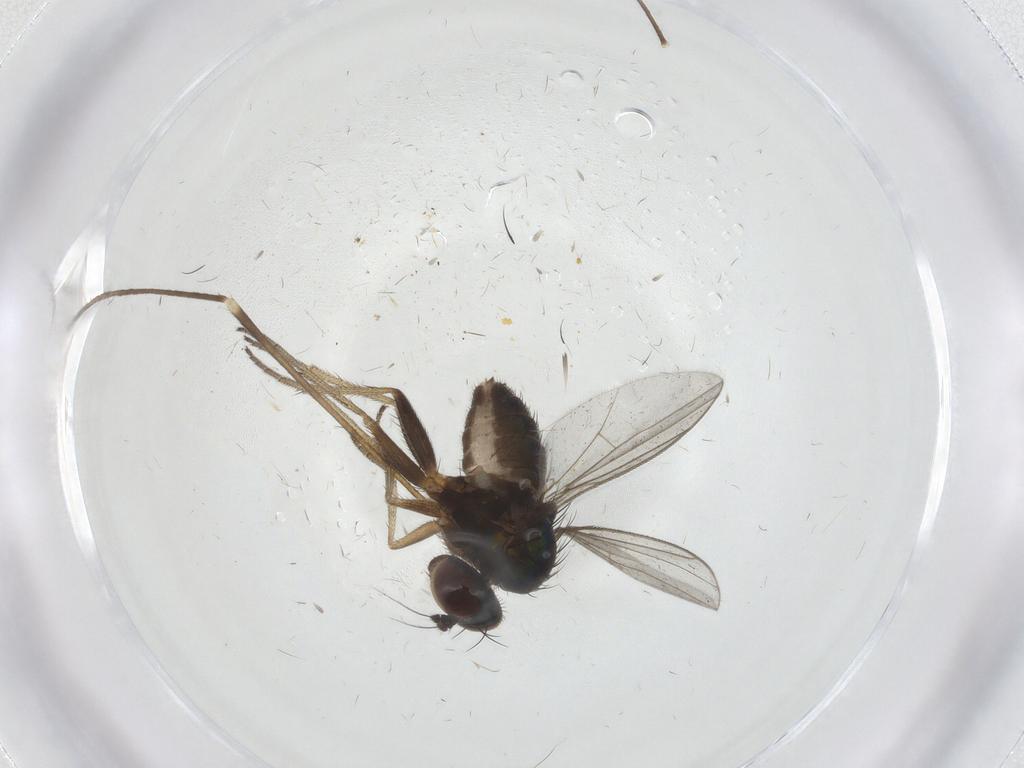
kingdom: Animalia
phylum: Arthropoda
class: Insecta
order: Diptera
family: Limoniidae
